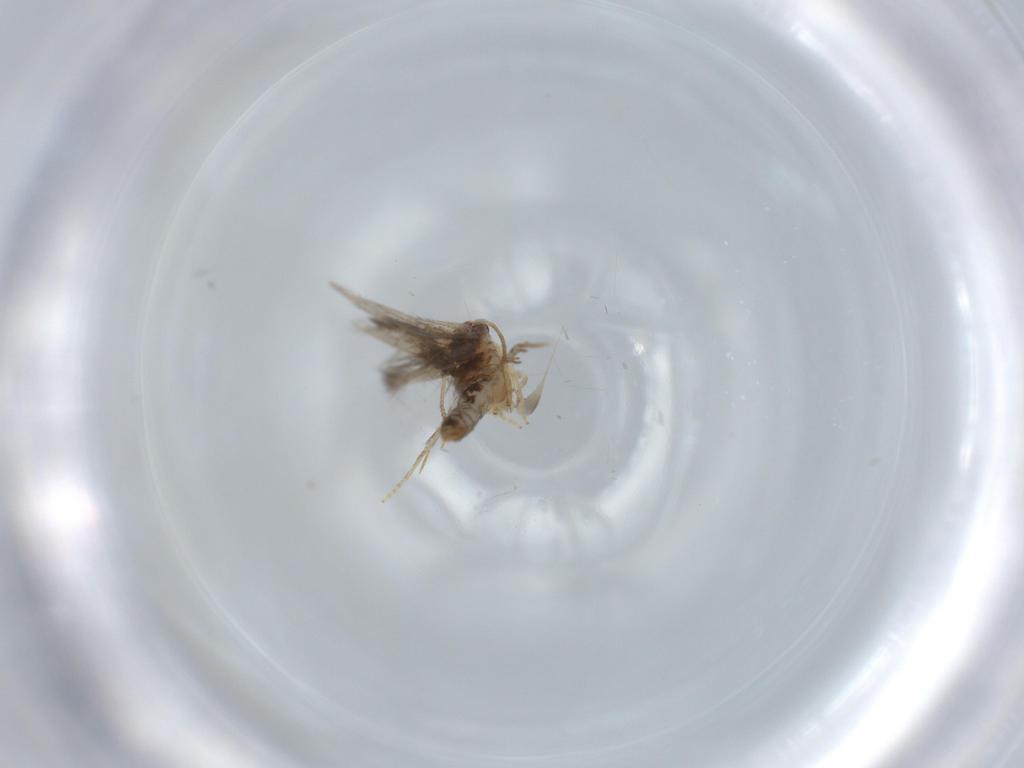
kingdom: Animalia
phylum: Arthropoda
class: Insecta
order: Lepidoptera
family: Nepticulidae
